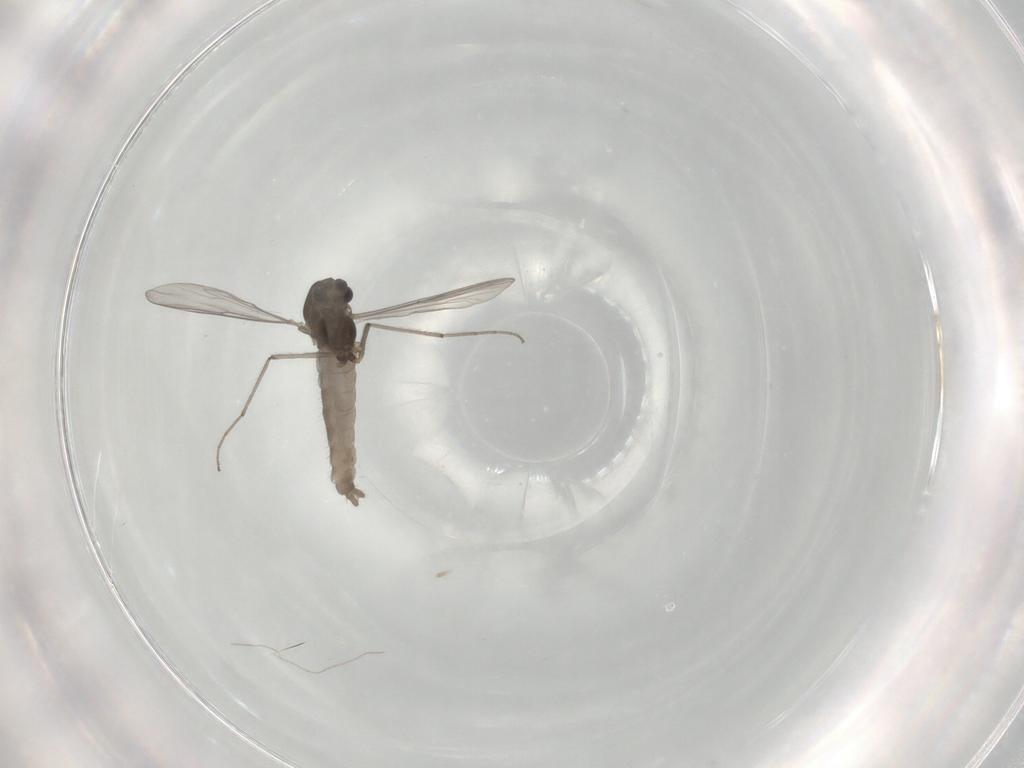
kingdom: Animalia
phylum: Arthropoda
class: Insecta
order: Diptera
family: Chironomidae
